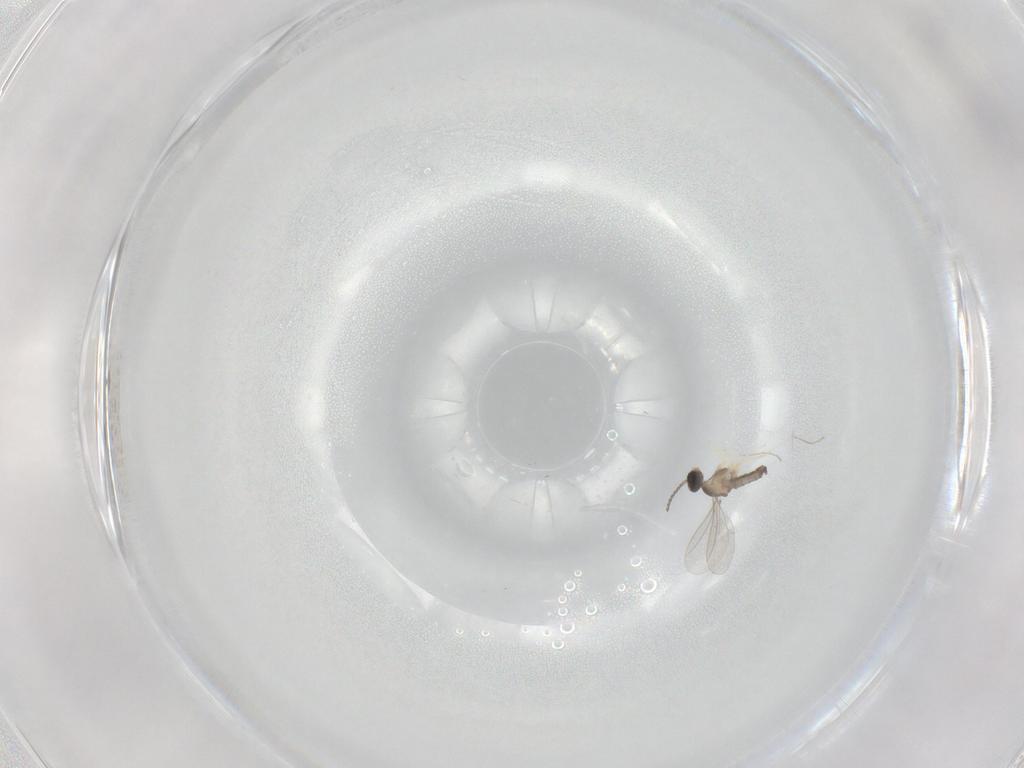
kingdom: Animalia
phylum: Arthropoda
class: Insecta
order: Diptera
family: Cecidomyiidae
